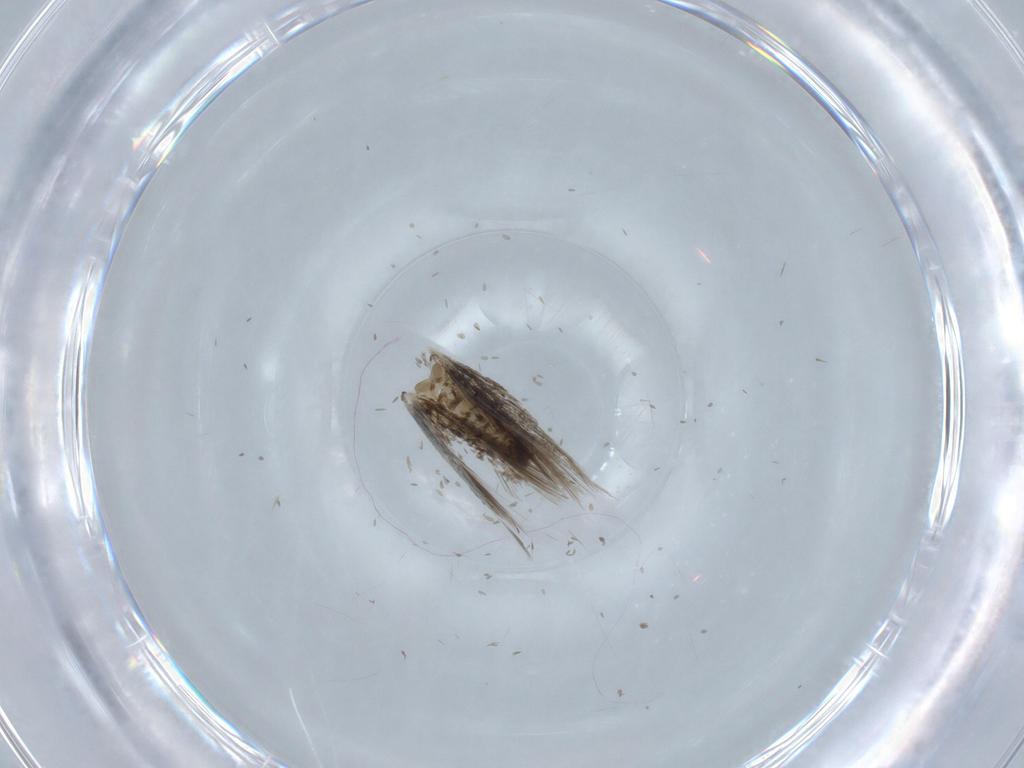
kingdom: Animalia
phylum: Arthropoda
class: Insecta
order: Lepidoptera
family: Nepticulidae
